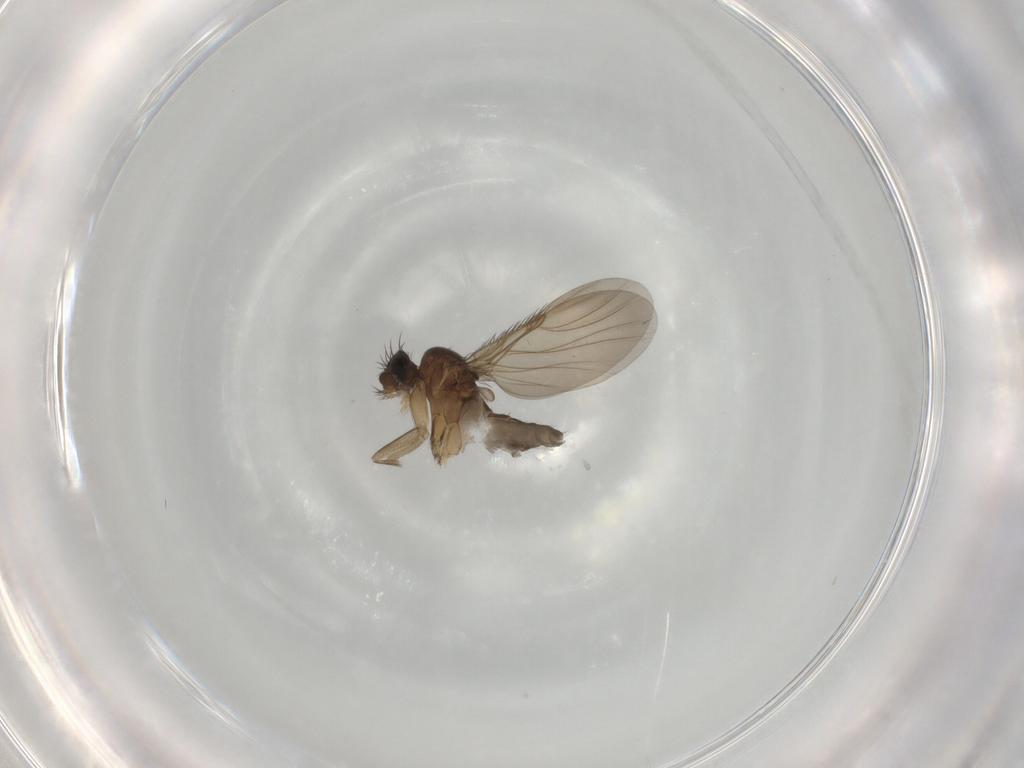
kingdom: Animalia
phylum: Arthropoda
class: Insecta
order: Diptera
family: Phoridae
